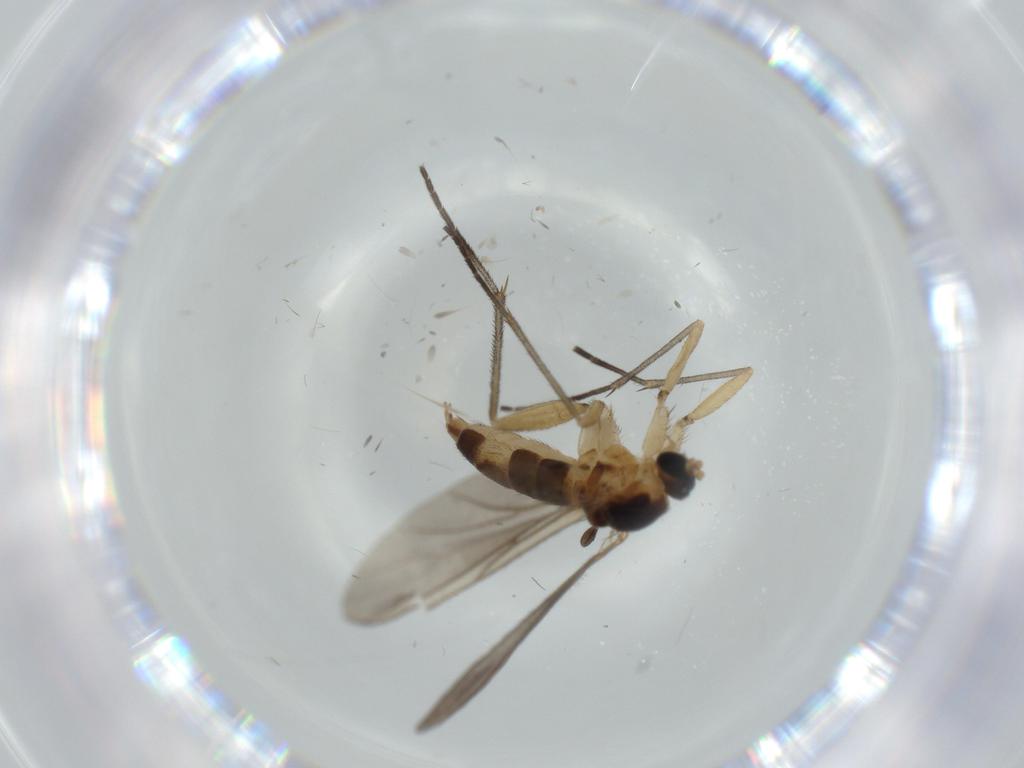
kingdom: Animalia
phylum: Arthropoda
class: Insecta
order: Diptera
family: Sciaridae
